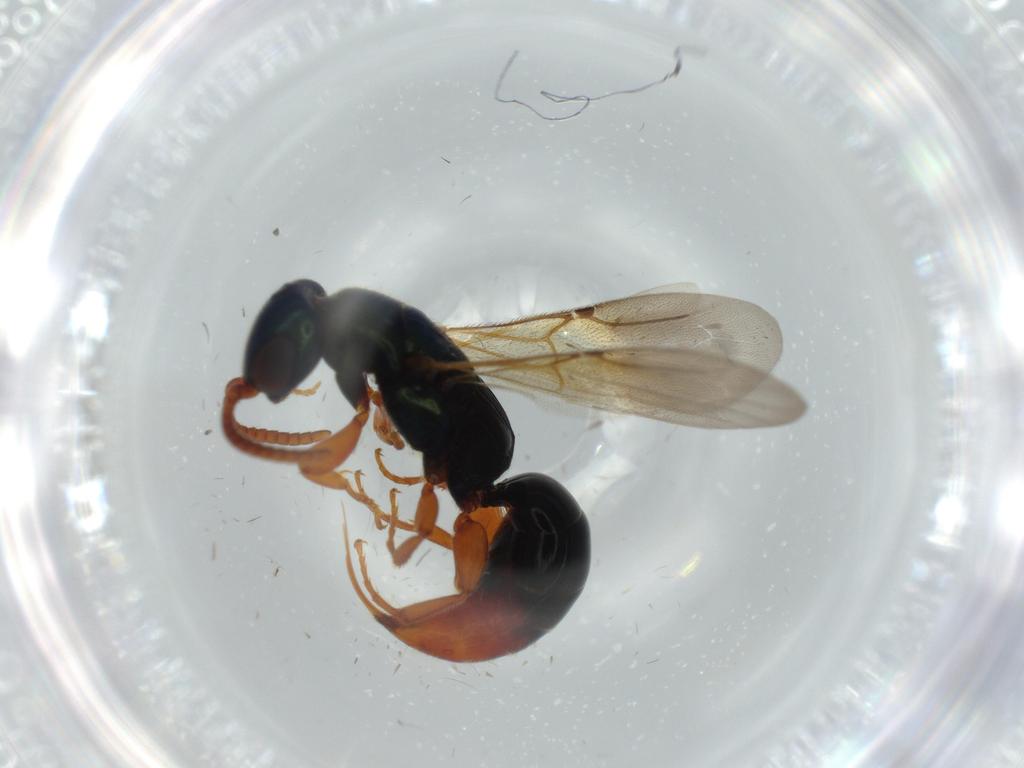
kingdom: Animalia
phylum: Arthropoda
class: Insecta
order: Hymenoptera
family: Bethylidae
